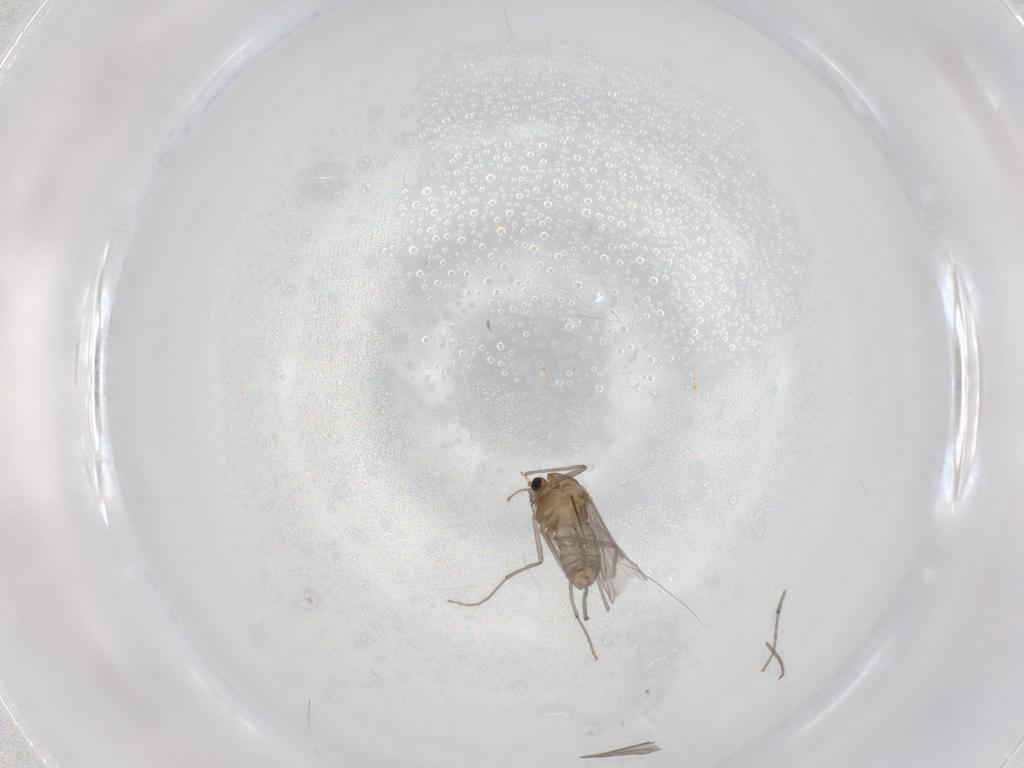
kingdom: Animalia
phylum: Arthropoda
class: Insecta
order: Diptera
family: Chironomidae
